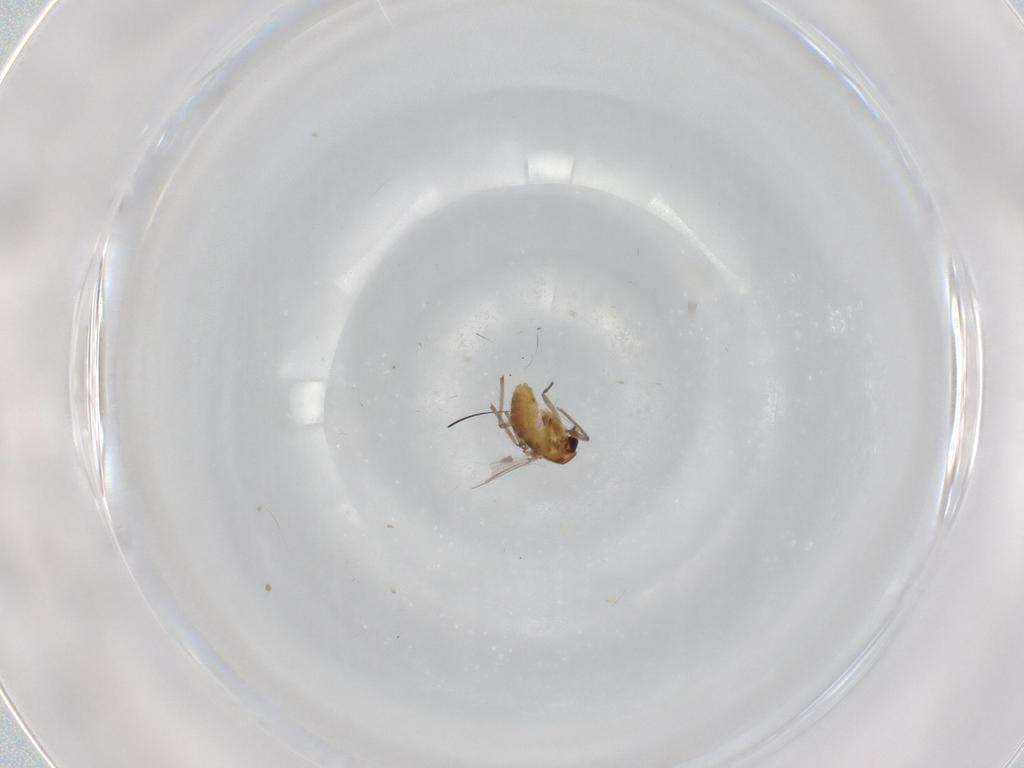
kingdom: Animalia
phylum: Arthropoda
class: Insecta
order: Diptera
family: Chironomidae
